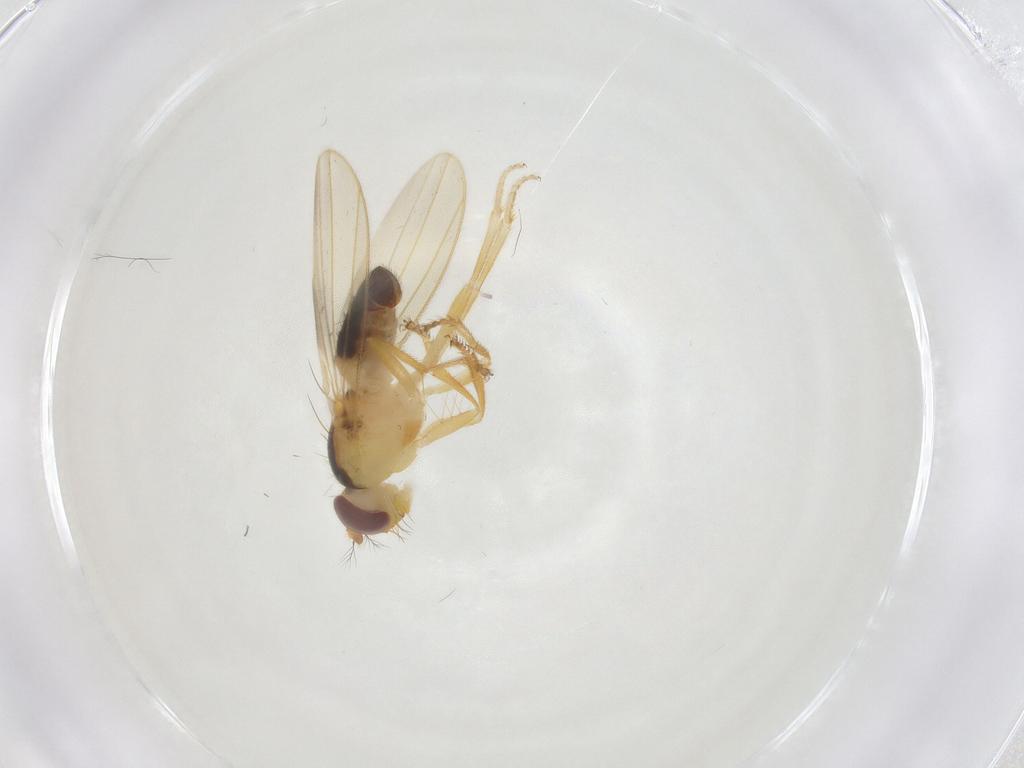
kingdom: Animalia
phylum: Arthropoda
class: Insecta
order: Diptera
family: Periscelididae
